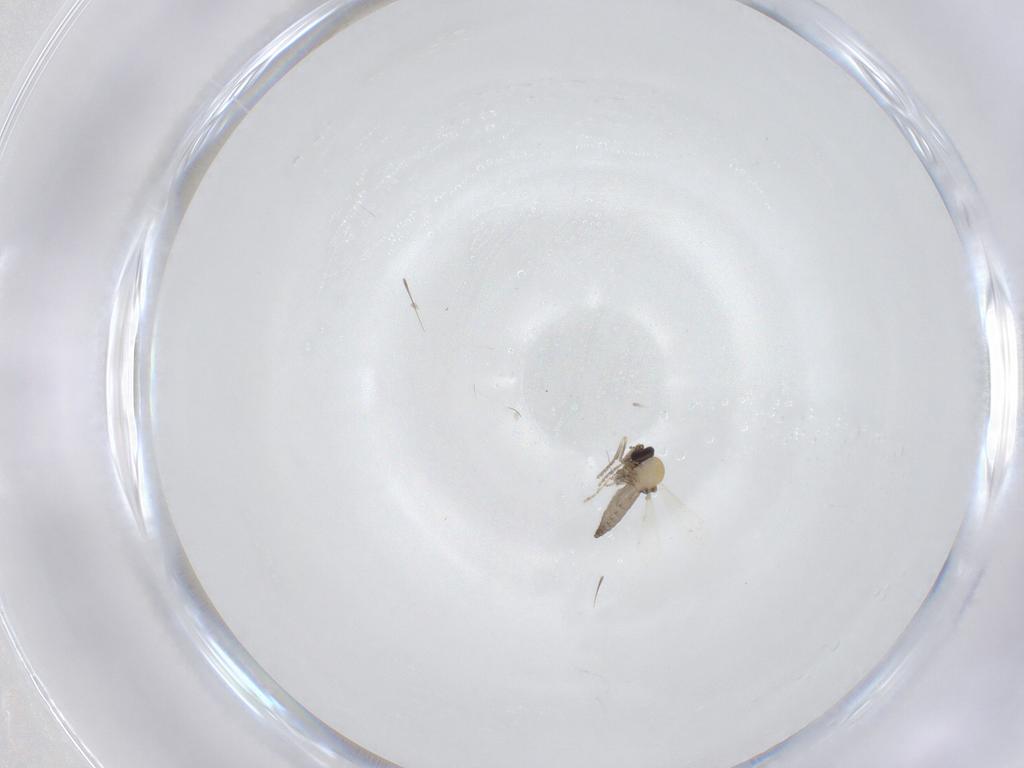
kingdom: Animalia
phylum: Arthropoda
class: Insecta
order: Diptera
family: Ceratopogonidae
